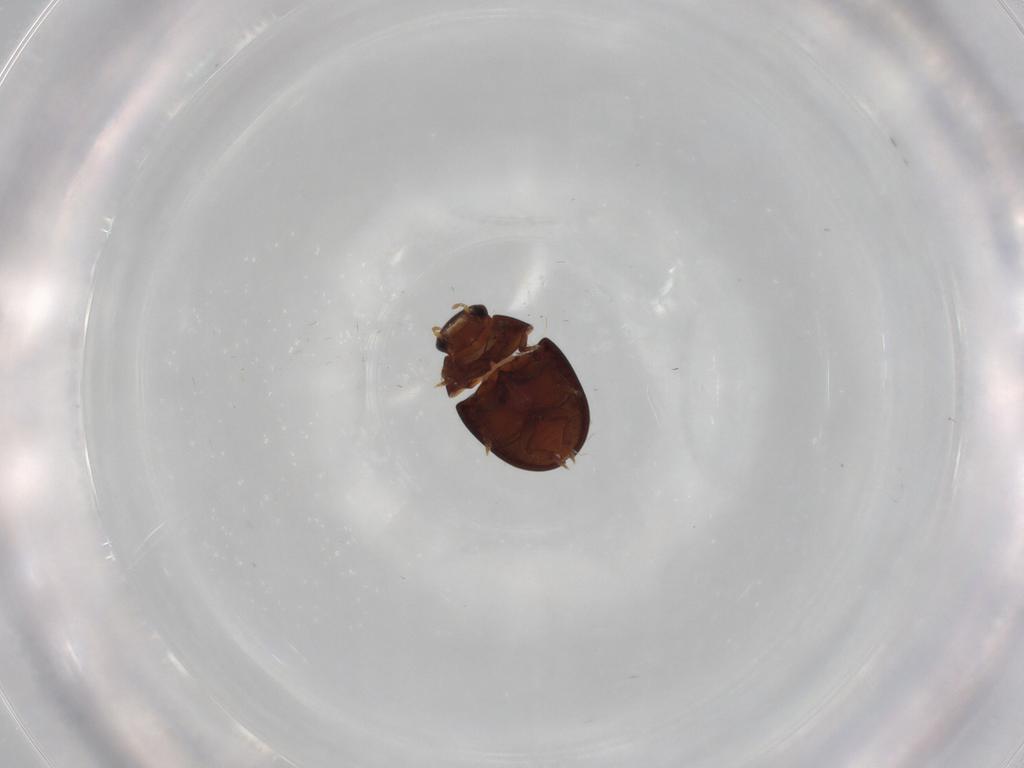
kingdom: Animalia
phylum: Arthropoda
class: Insecta
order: Coleoptera
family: Hydrophilidae
